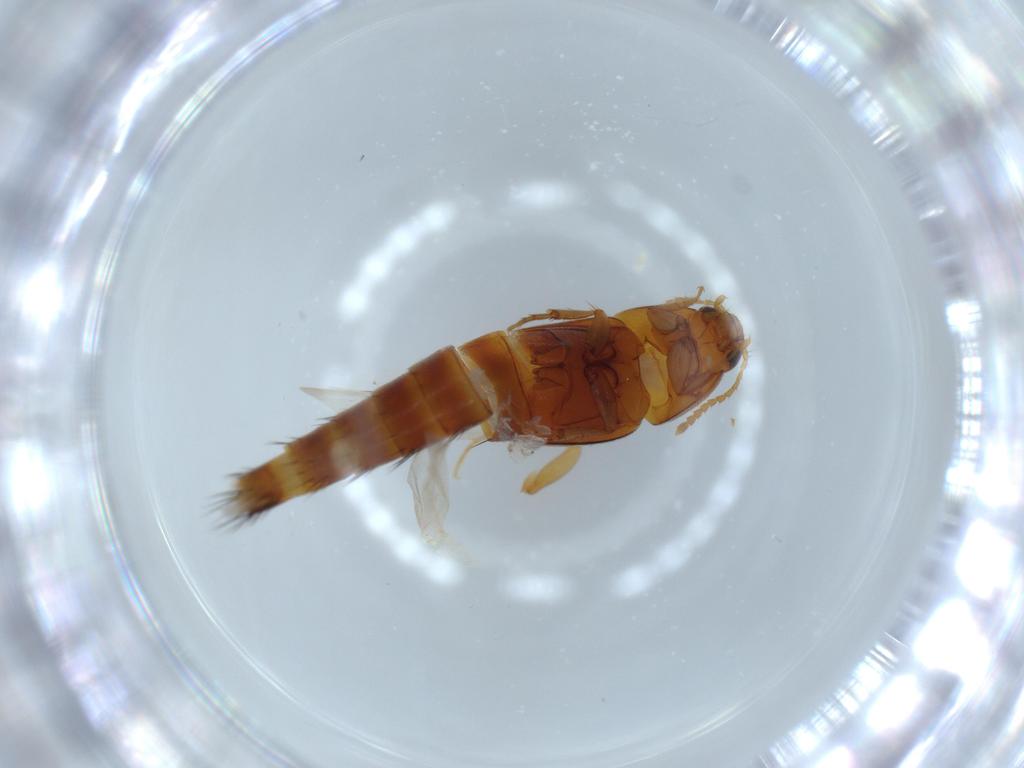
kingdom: Animalia
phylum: Arthropoda
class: Insecta
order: Coleoptera
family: Staphylinidae
